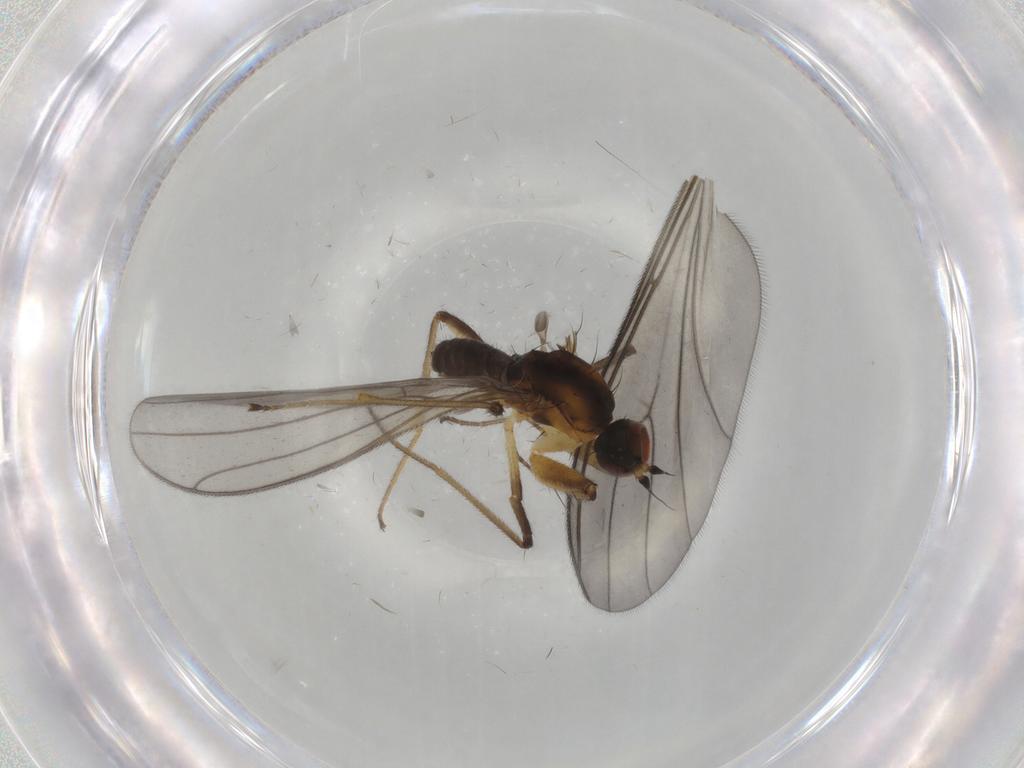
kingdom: Animalia
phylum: Arthropoda
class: Insecta
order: Diptera
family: Empididae
